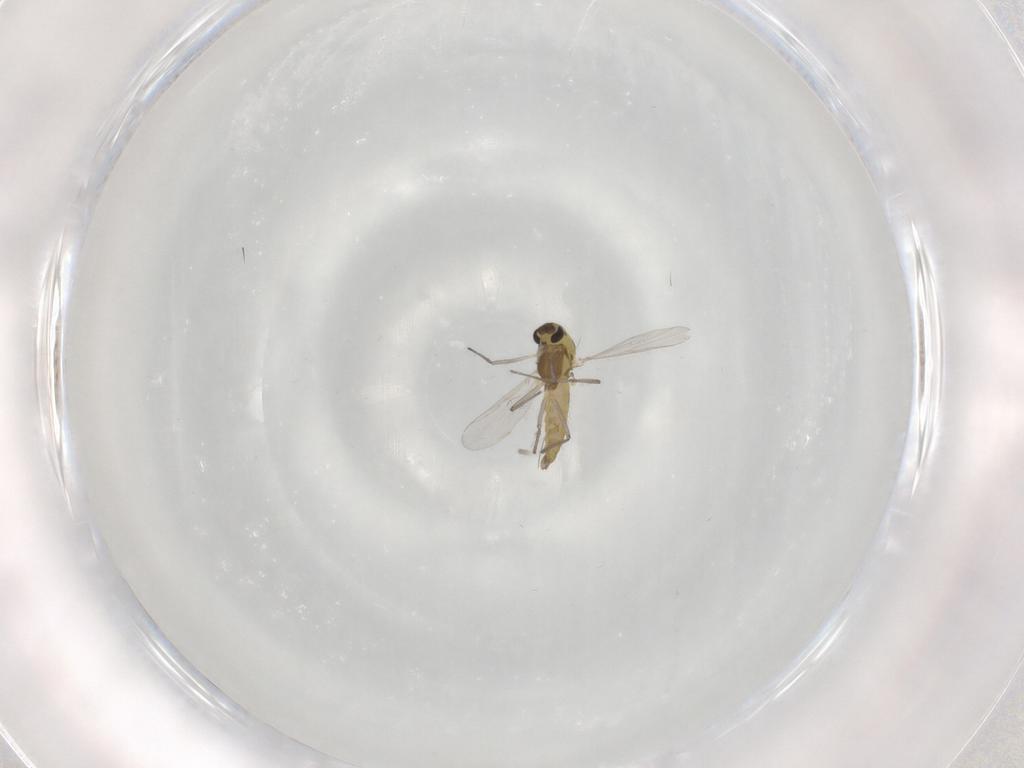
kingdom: Animalia
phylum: Arthropoda
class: Insecta
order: Diptera
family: Chironomidae
